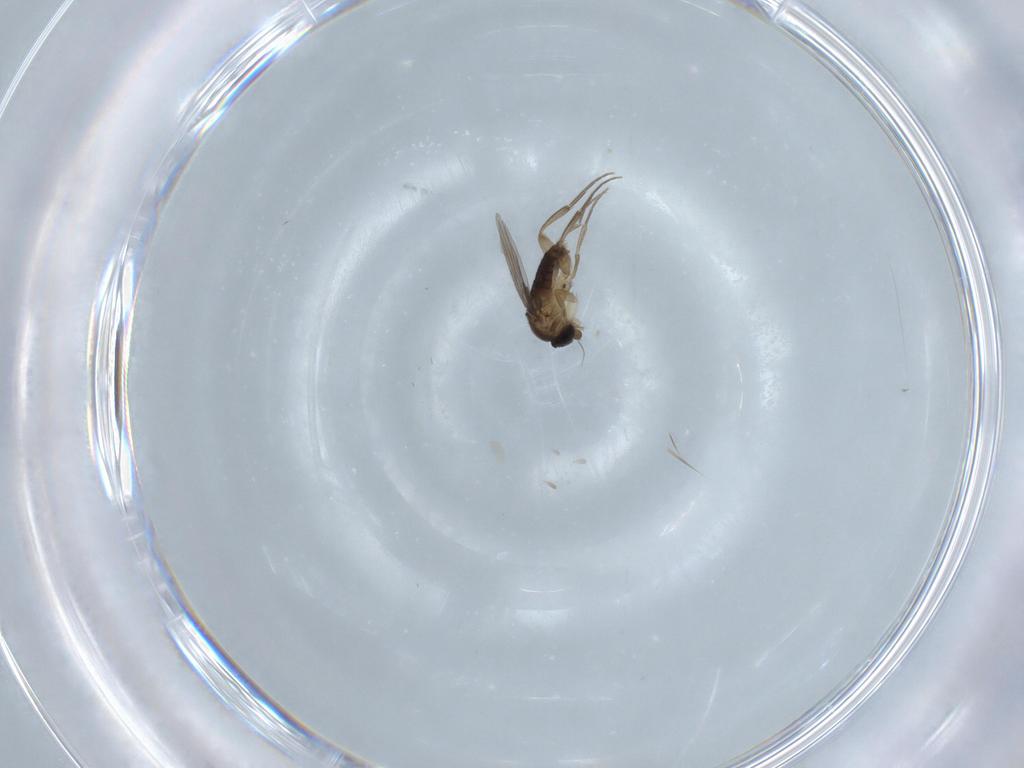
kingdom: Animalia
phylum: Arthropoda
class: Insecta
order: Diptera
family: Phoridae
